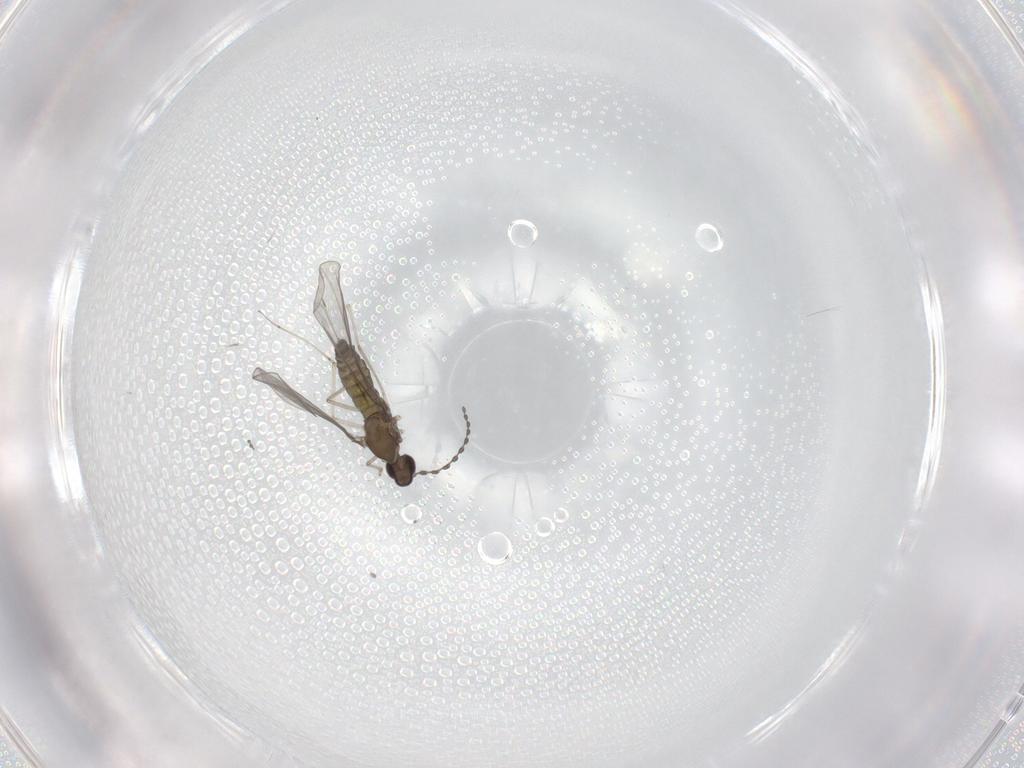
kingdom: Animalia
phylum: Arthropoda
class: Insecta
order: Diptera
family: Cecidomyiidae
